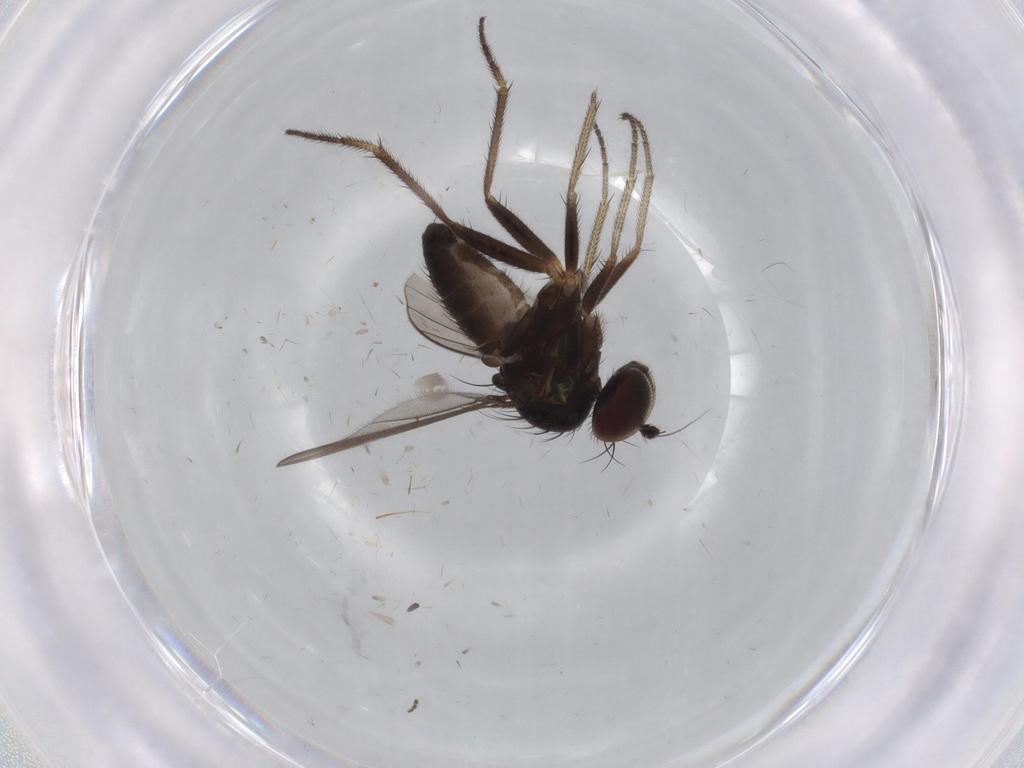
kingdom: Animalia
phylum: Arthropoda
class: Insecta
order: Diptera
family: Dolichopodidae
